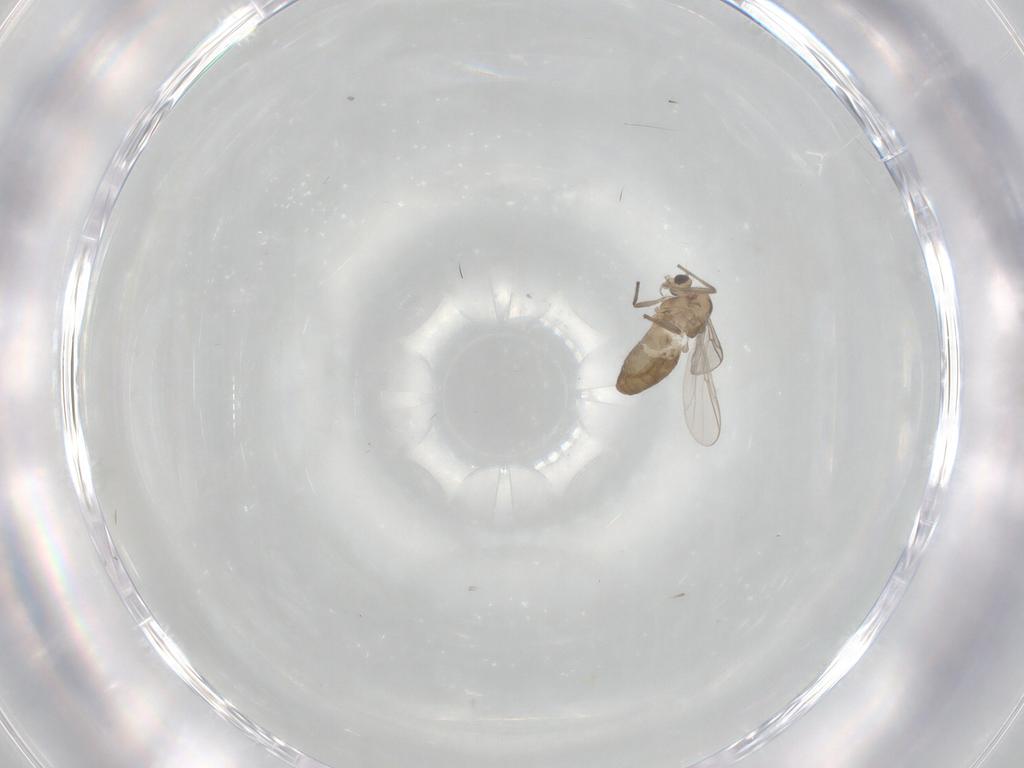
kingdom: Animalia
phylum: Arthropoda
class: Insecta
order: Diptera
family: Chironomidae
